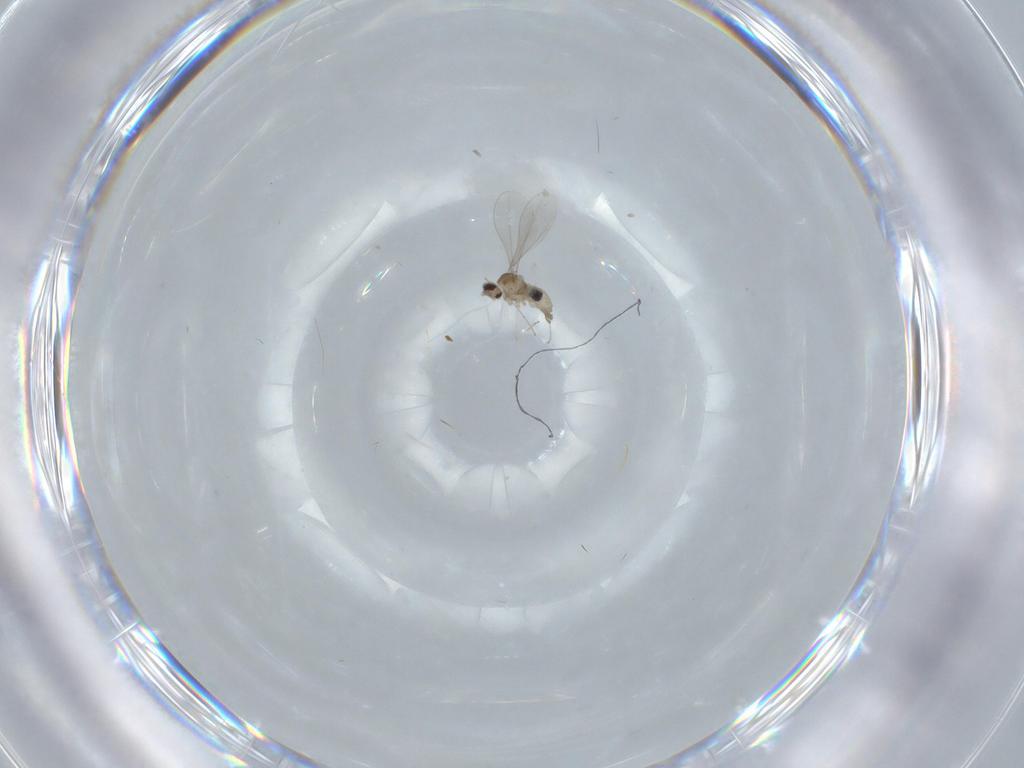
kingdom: Animalia
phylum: Arthropoda
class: Insecta
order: Diptera
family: Cecidomyiidae
